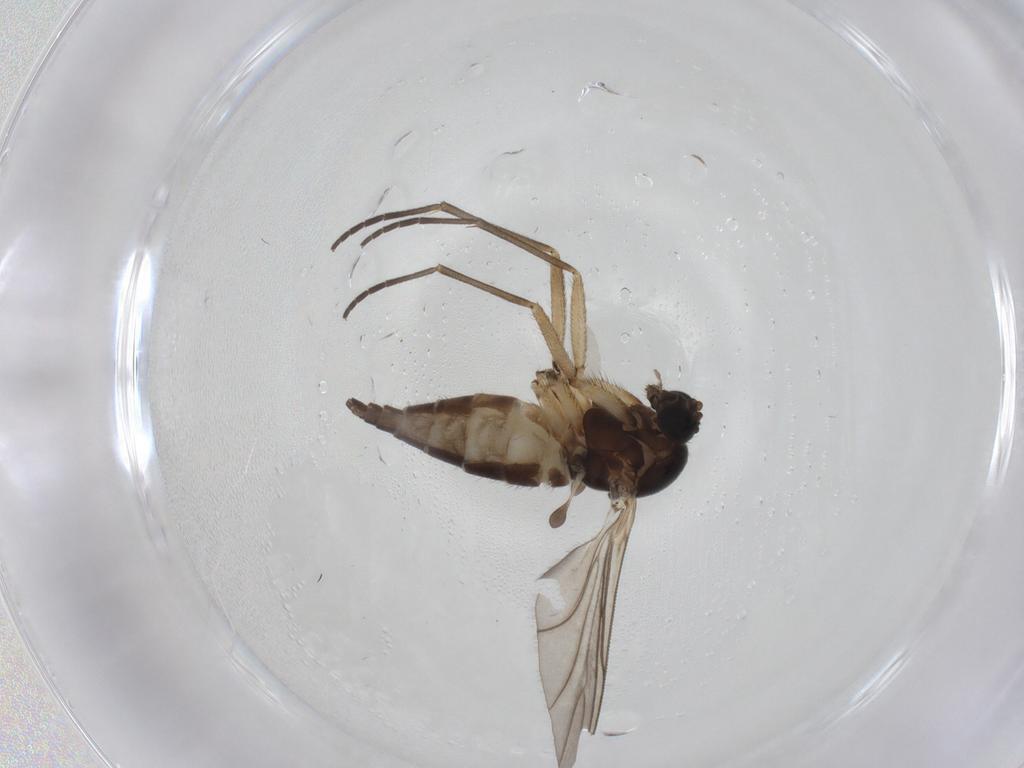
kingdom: Animalia
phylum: Arthropoda
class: Insecta
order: Diptera
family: Sciaridae
